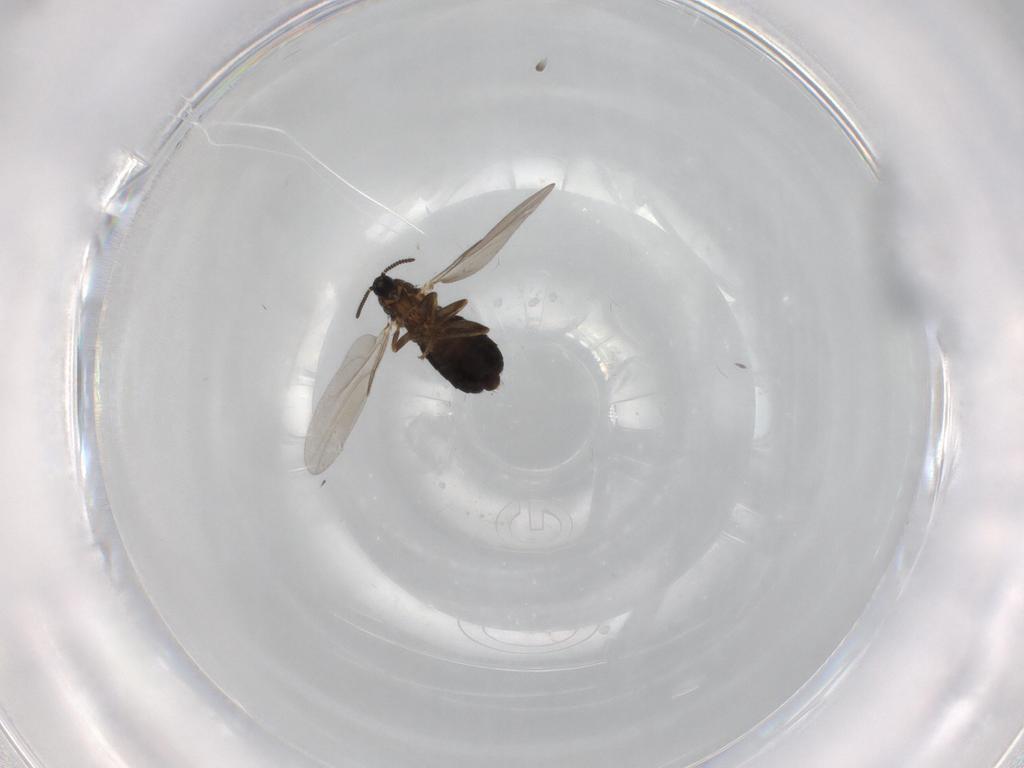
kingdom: Animalia
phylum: Arthropoda
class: Insecta
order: Diptera
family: Scatopsidae
